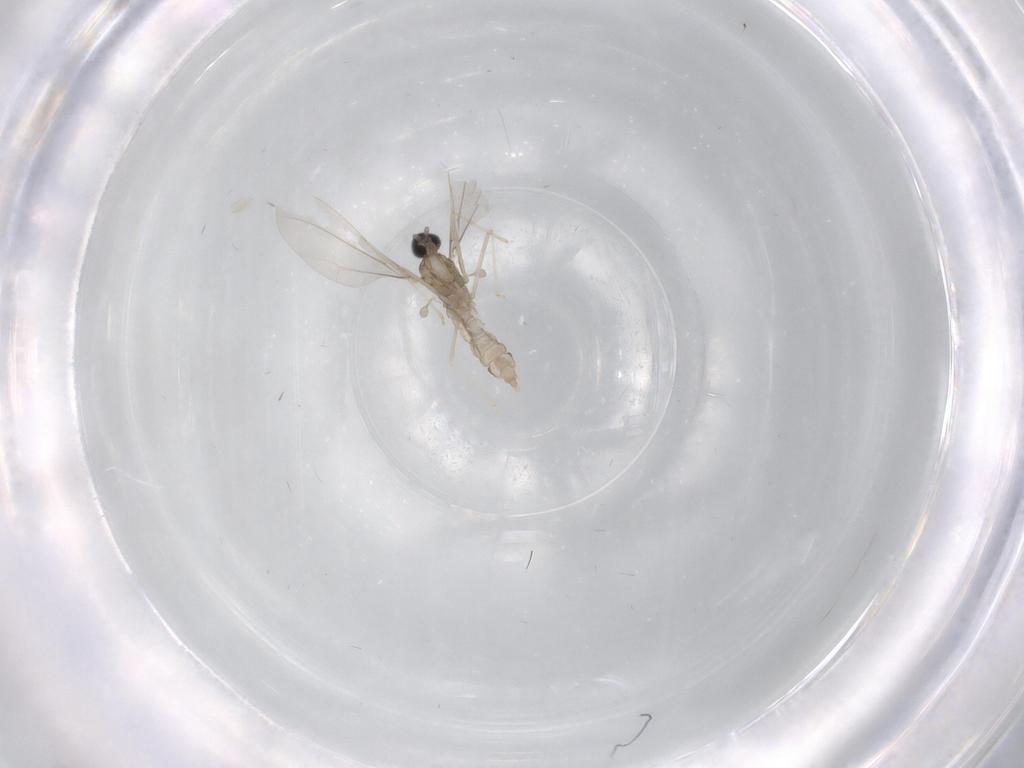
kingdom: Animalia
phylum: Arthropoda
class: Insecta
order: Diptera
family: Cecidomyiidae
